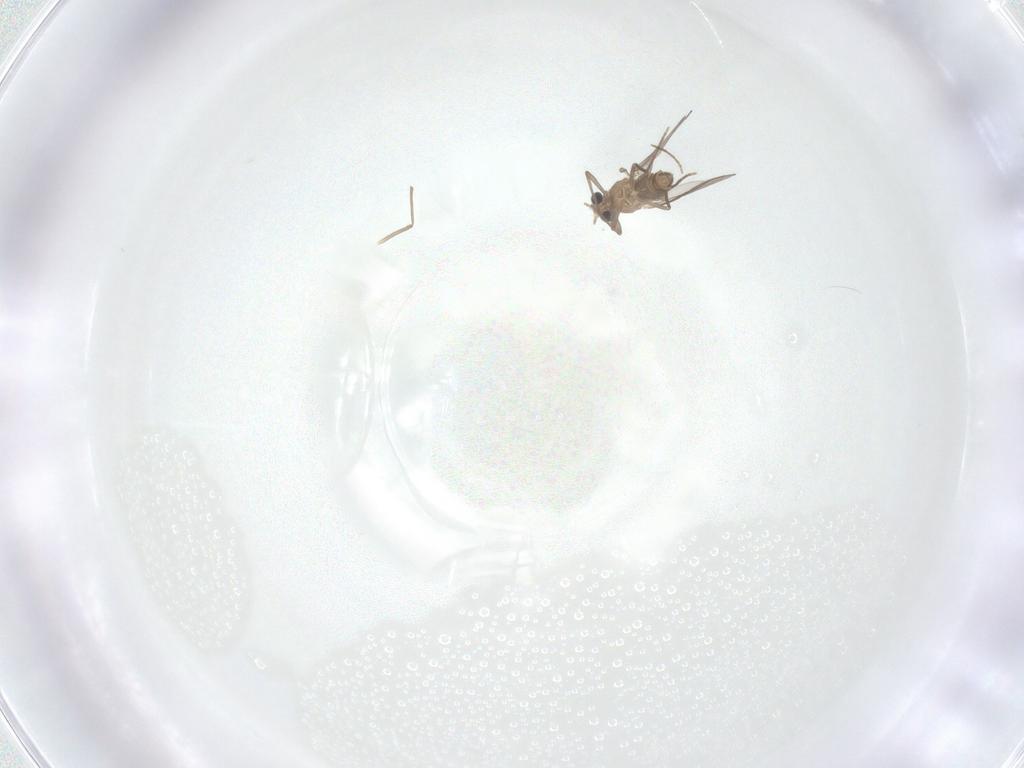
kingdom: Animalia
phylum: Arthropoda
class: Insecta
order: Diptera
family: Chironomidae
